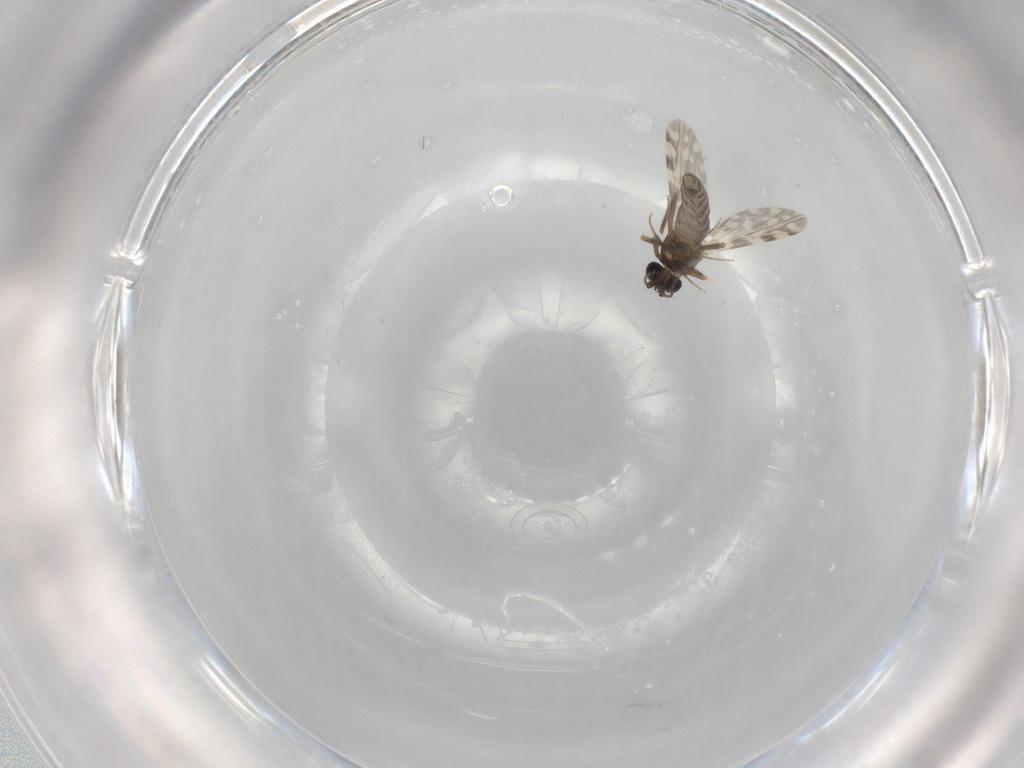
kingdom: Animalia
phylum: Arthropoda
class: Insecta
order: Diptera
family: Ceratopogonidae
